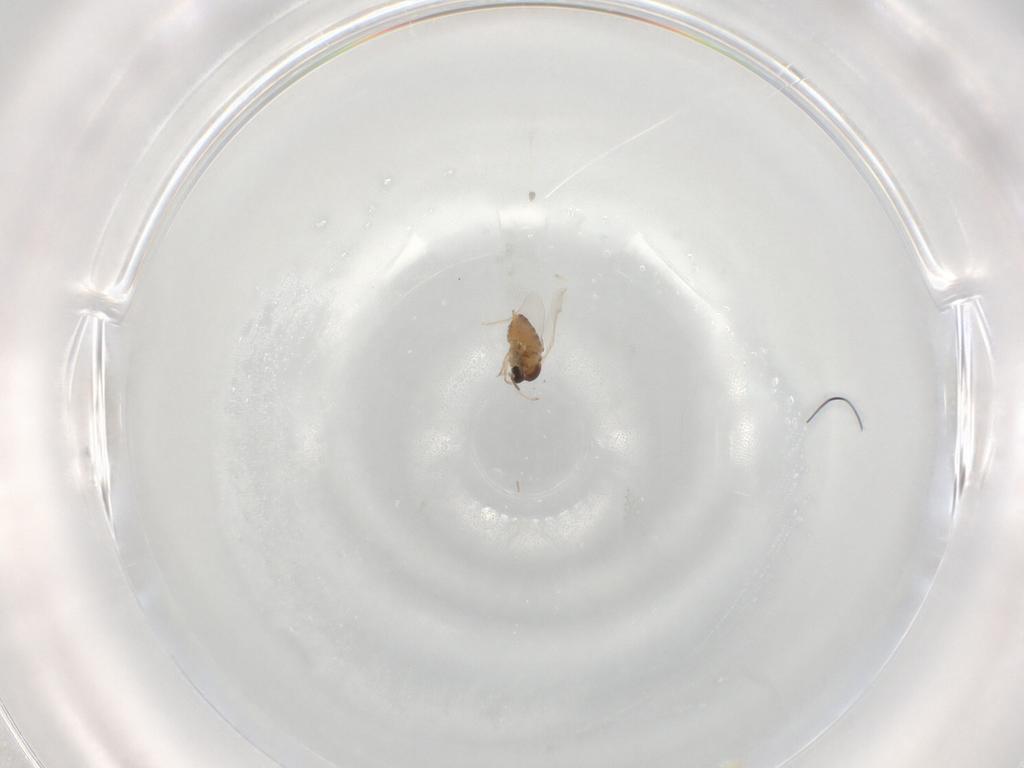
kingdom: Animalia
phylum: Arthropoda
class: Insecta
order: Diptera
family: Cecidomyiidae
